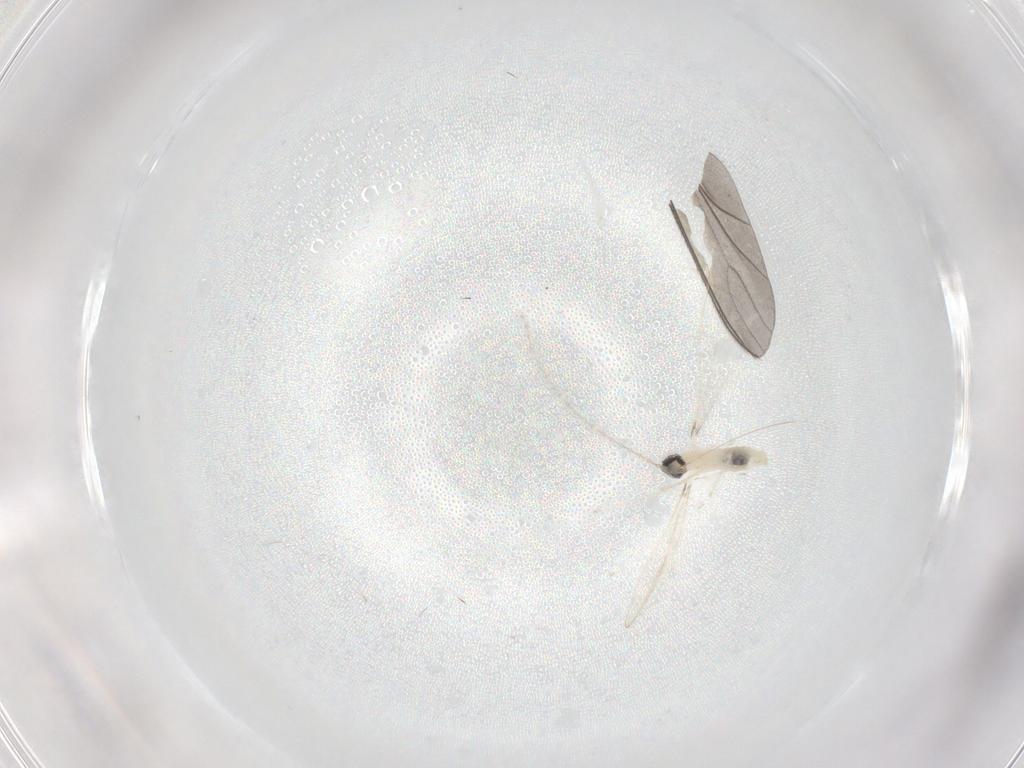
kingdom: Animalia
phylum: Arthropoda
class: Insecta
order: Diptera
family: Cecidomyiidae
